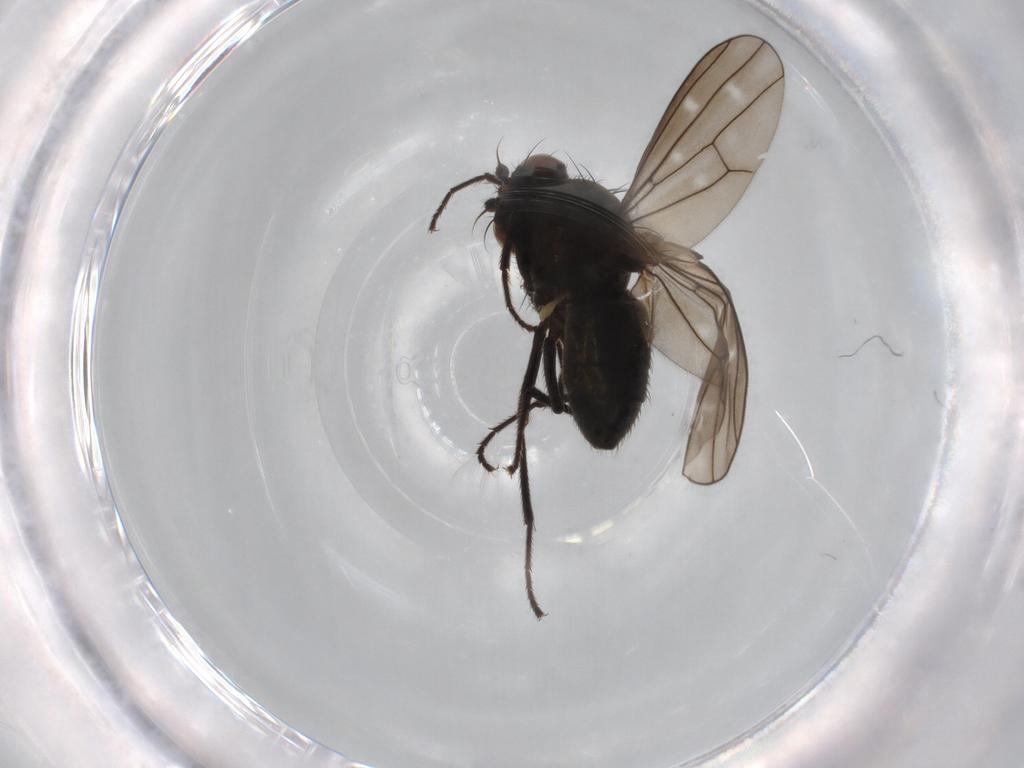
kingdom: Animalia
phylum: Arthropoda
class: Insecta
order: Diptera
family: Ephydridae
